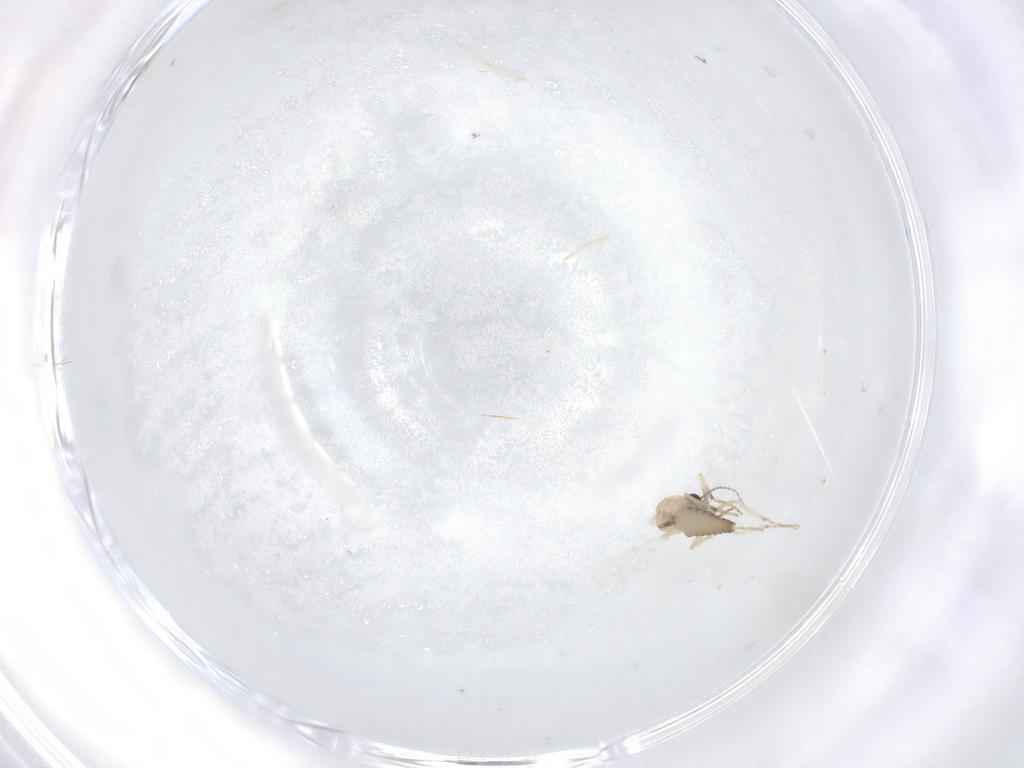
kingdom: Animalia
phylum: Arthropoda
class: Insecta
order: Diptera
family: Ceratopogonidae
